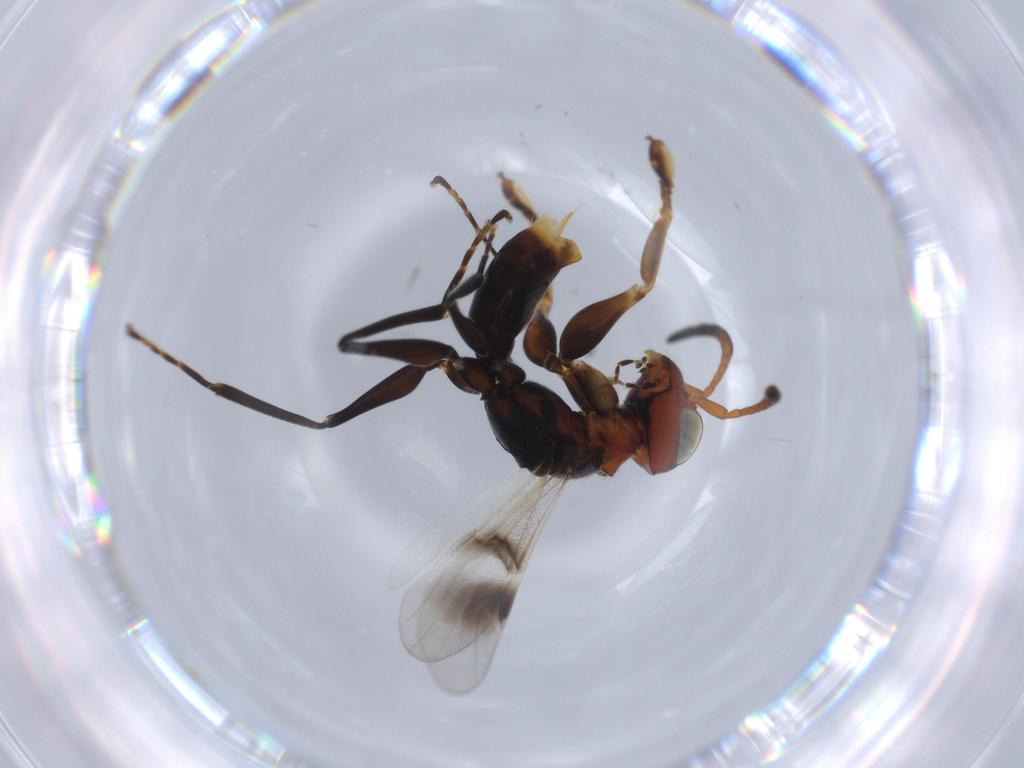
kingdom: Animalia
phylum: Arthropoda
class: Insecta
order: Hymenoptera
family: Dryinidae
